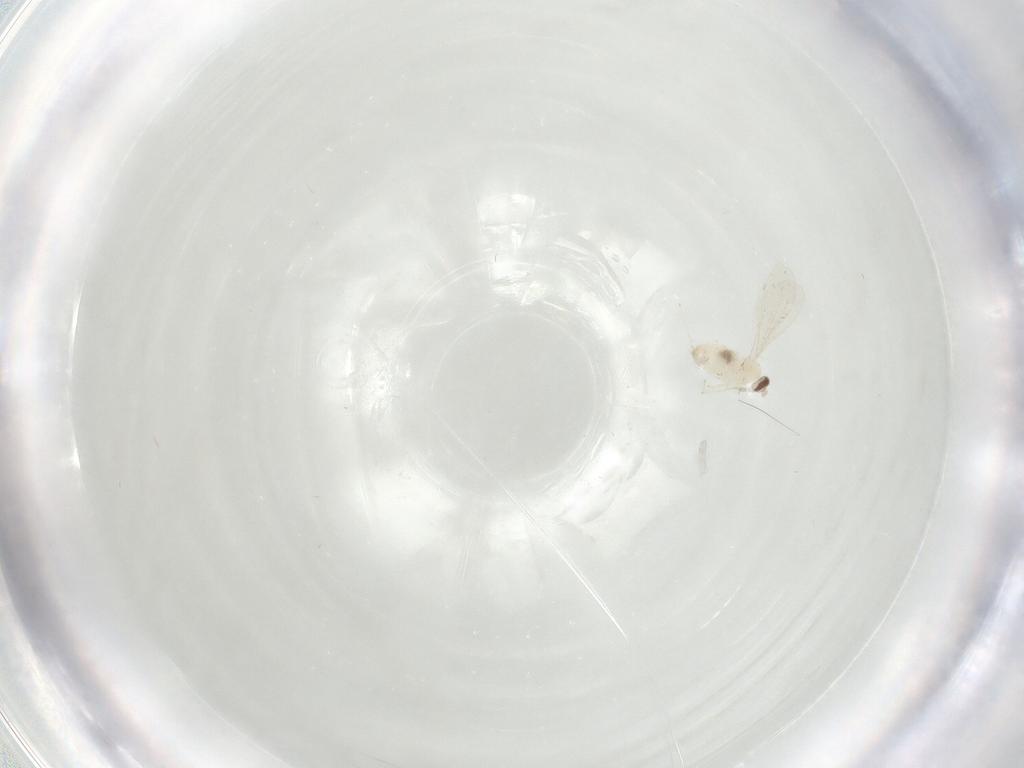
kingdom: Animalia
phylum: Arthropoda
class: Insecta
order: Diptera
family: Cecidomyiidae
